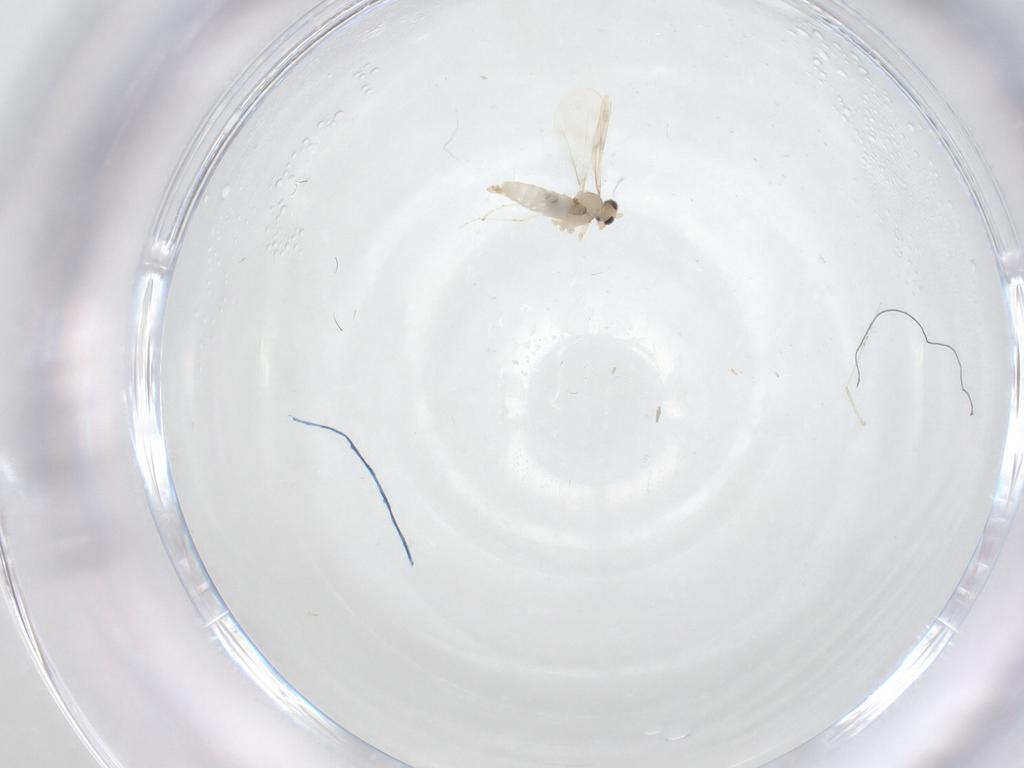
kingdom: Animalia
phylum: Arthropoda
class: Insecta
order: Diptera
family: Cecidomyiidae
